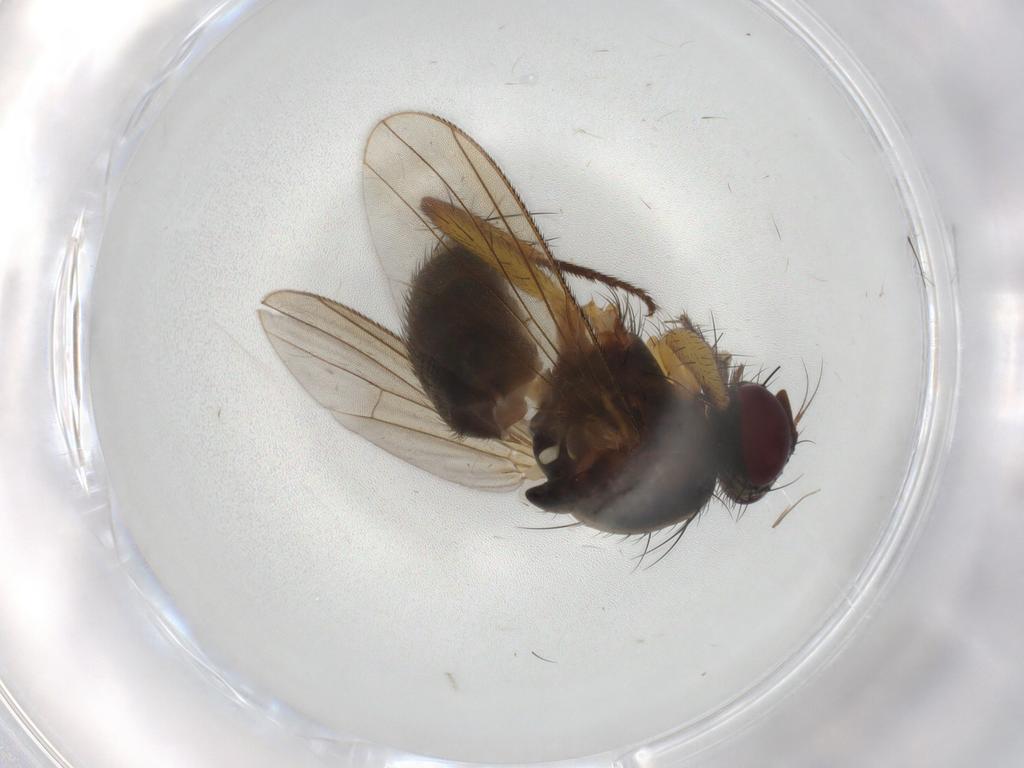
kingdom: Animalia
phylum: Arthropoda
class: Insecta
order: Diptera
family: Muscidae
